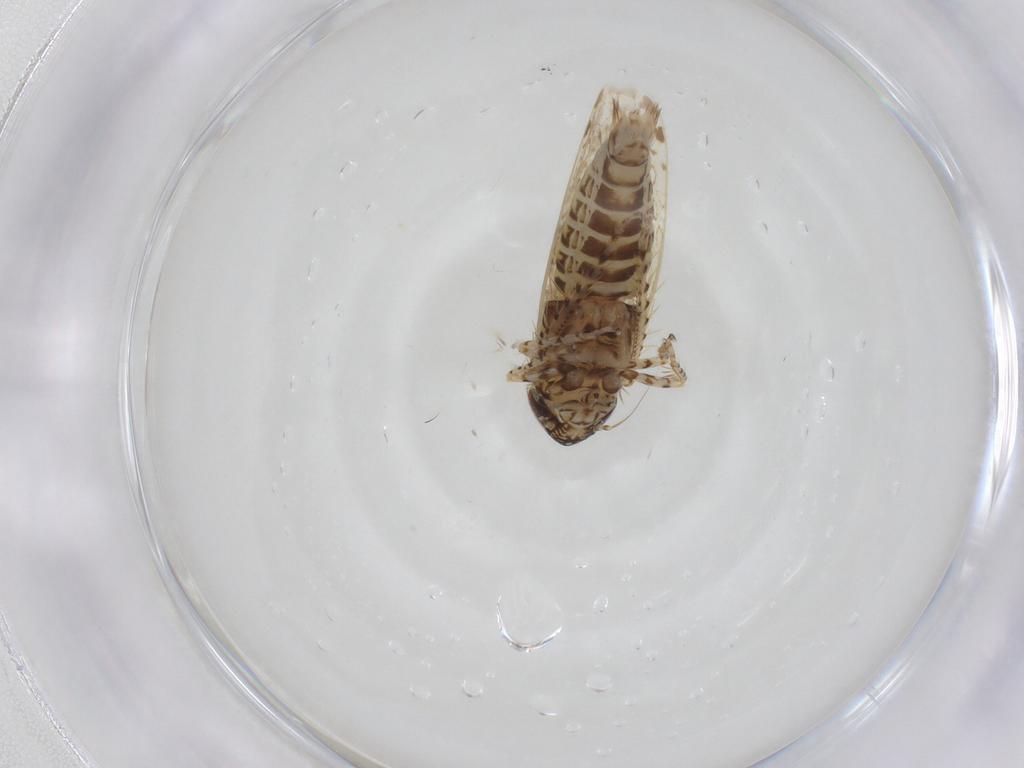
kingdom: Animalia
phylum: Arthropoda
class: Insecta
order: Hemiptera
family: Cicadellidae
